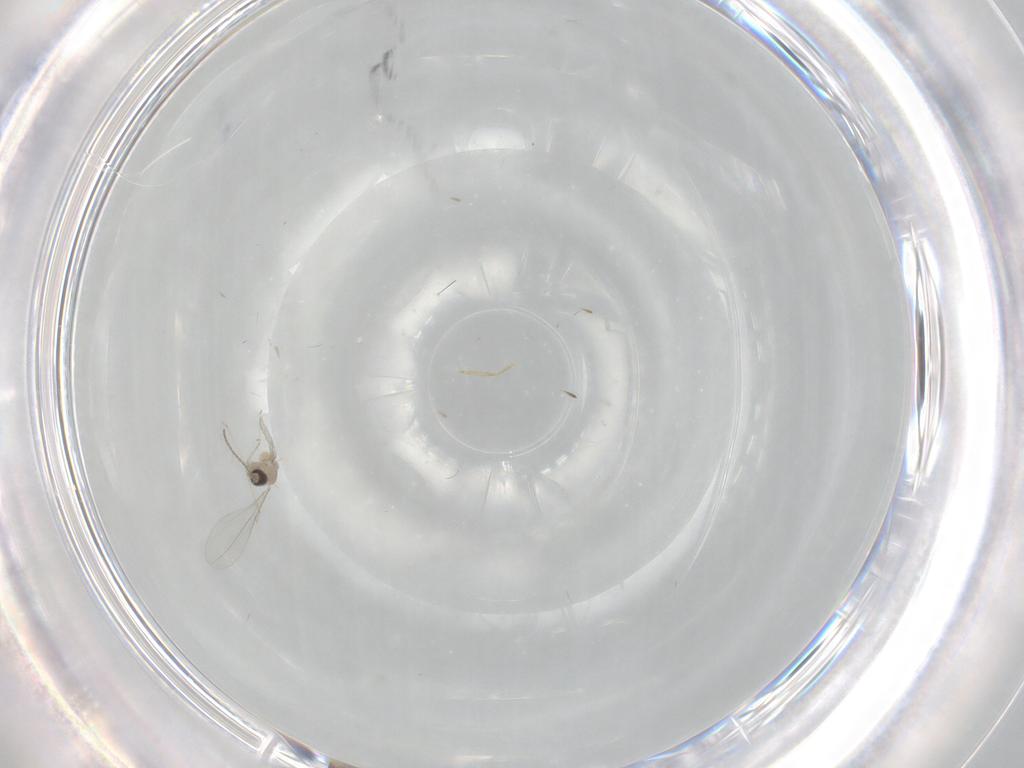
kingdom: Animalia
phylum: Arthropoda
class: Insecta
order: Diptera
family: Cecidomyiidae
